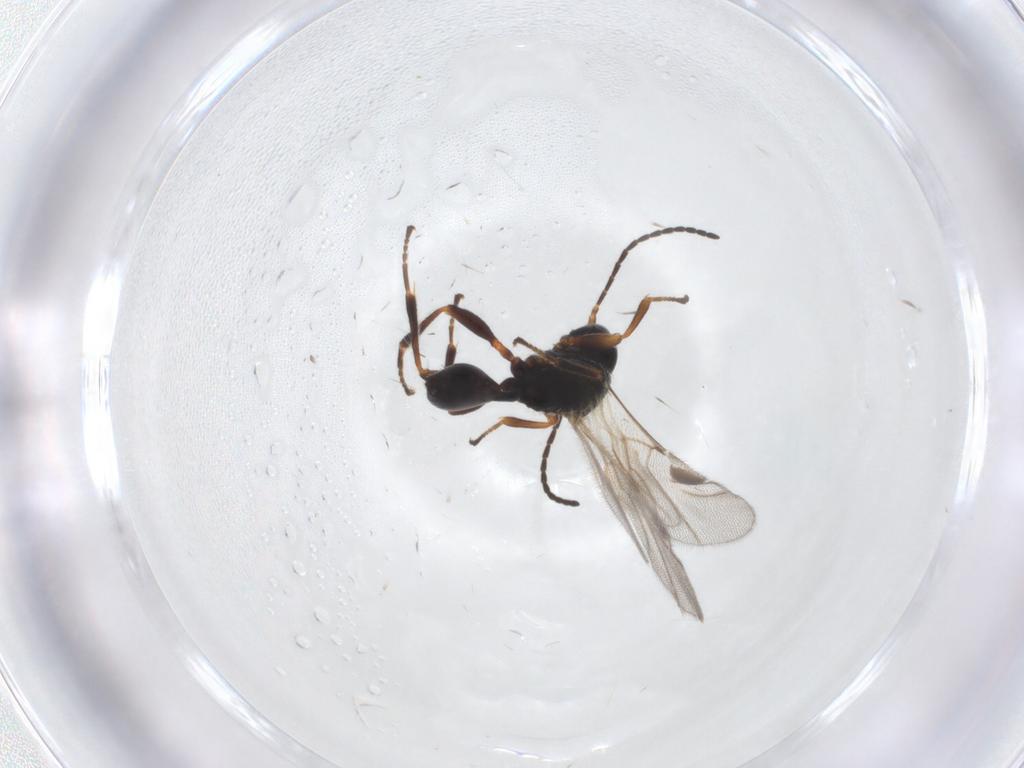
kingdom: Animalia
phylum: Arthropoda
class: Insecta
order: Hymenoptera
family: Braconidae
